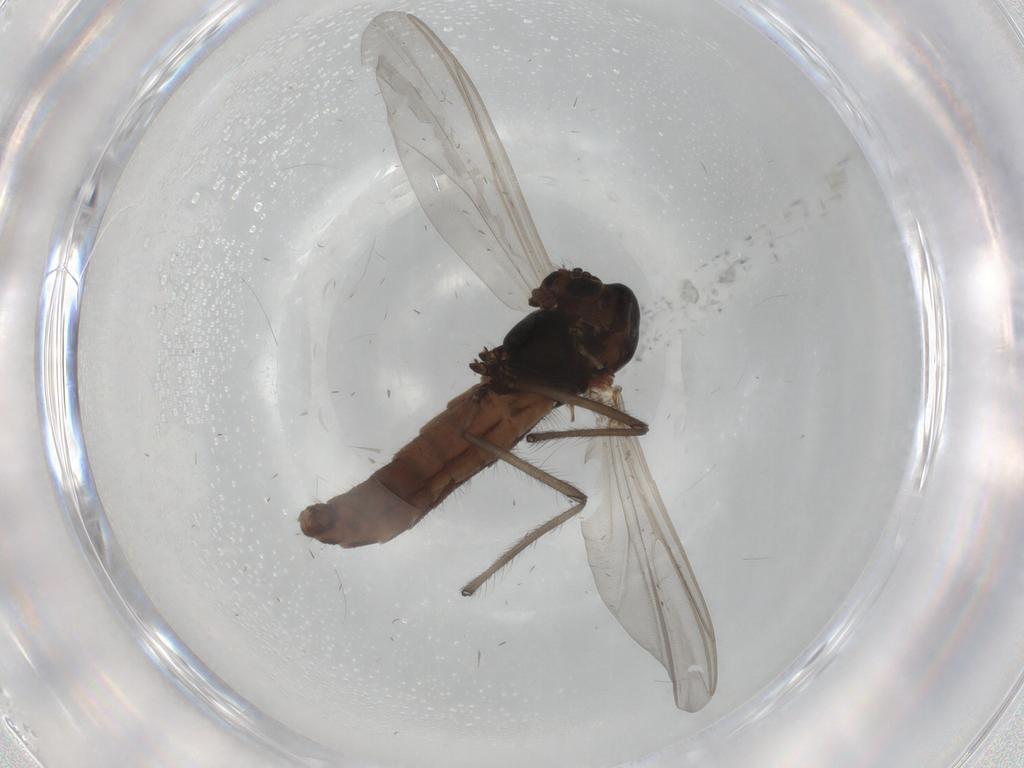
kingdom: Animalia
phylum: Arthropoda
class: Insecta
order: Diptera
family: Chironomidae
